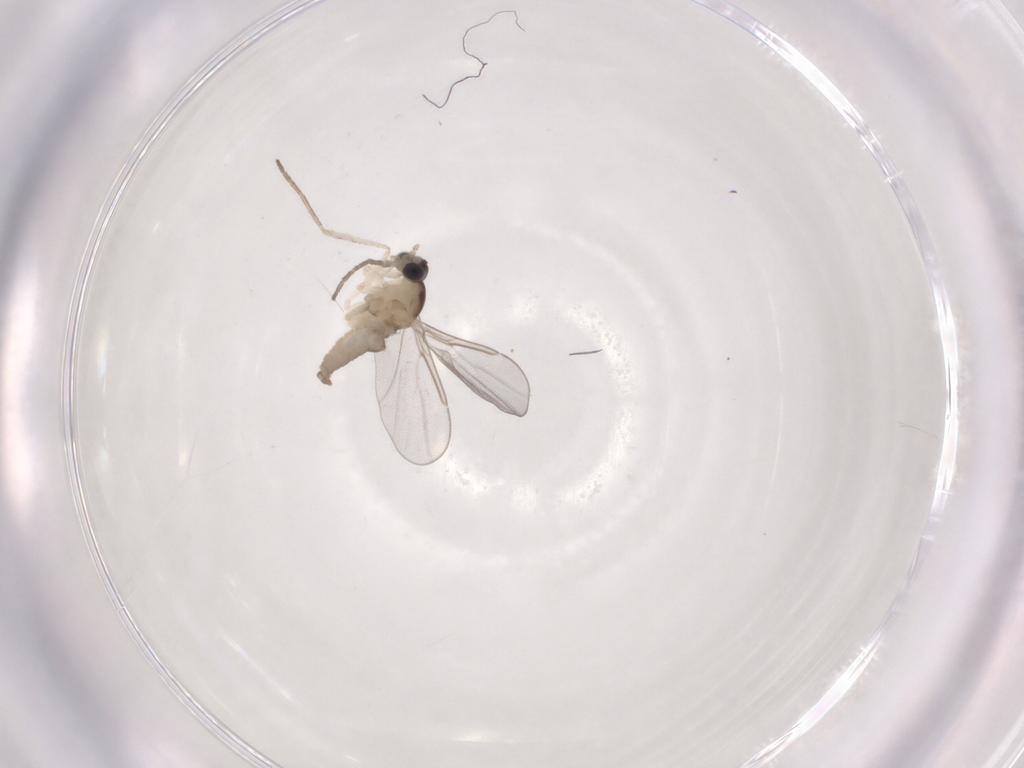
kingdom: Animalia
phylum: Arthropoda
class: Insecta
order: Diptera
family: Cecidomyiidae
